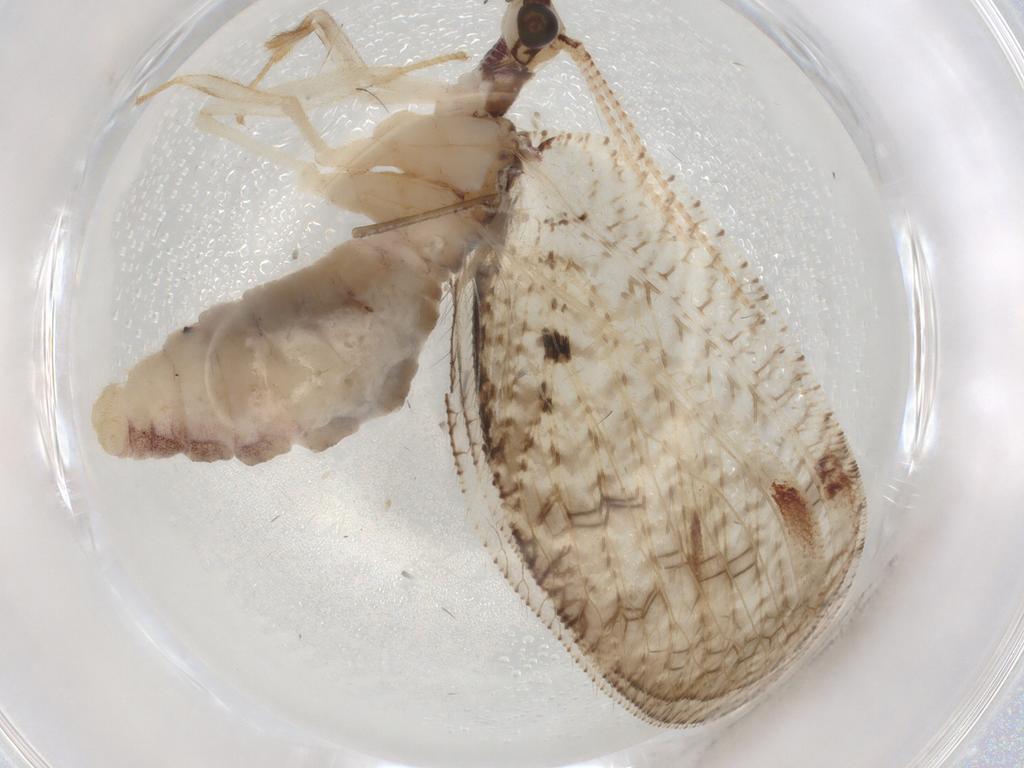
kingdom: Animalia
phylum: Arthropoda
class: Insecta
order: Neuroptera
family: Hemerobiidae
